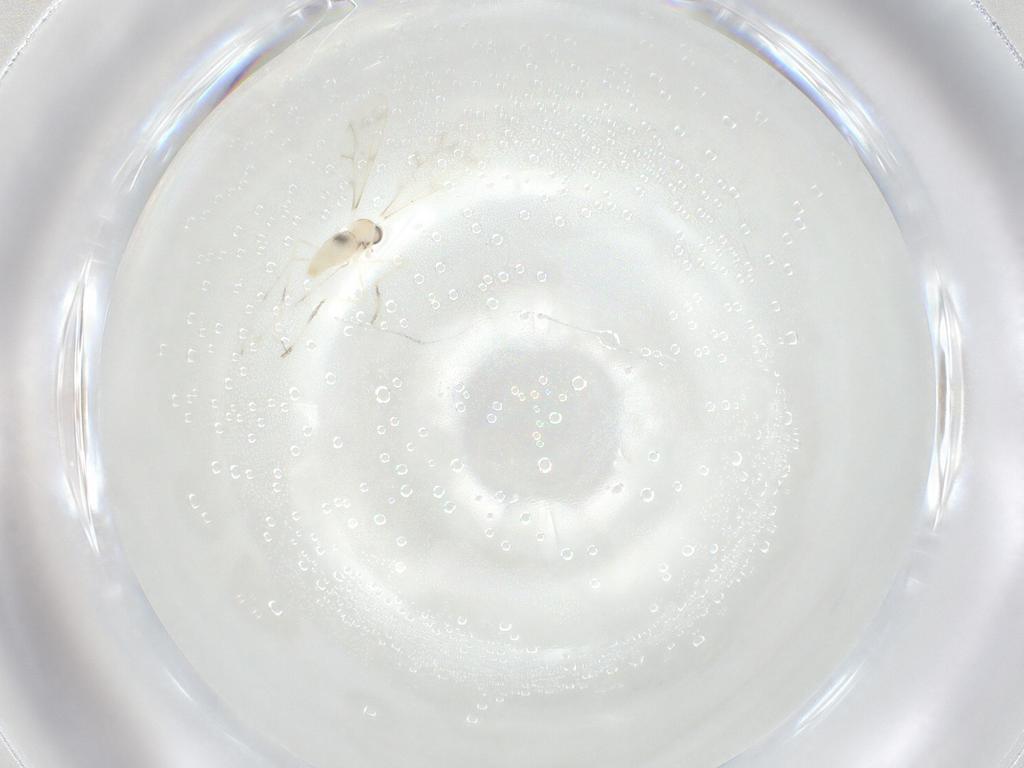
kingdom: Animalia
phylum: Arthropoda
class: Insecta
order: Diptera
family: Cecidomyiidae
